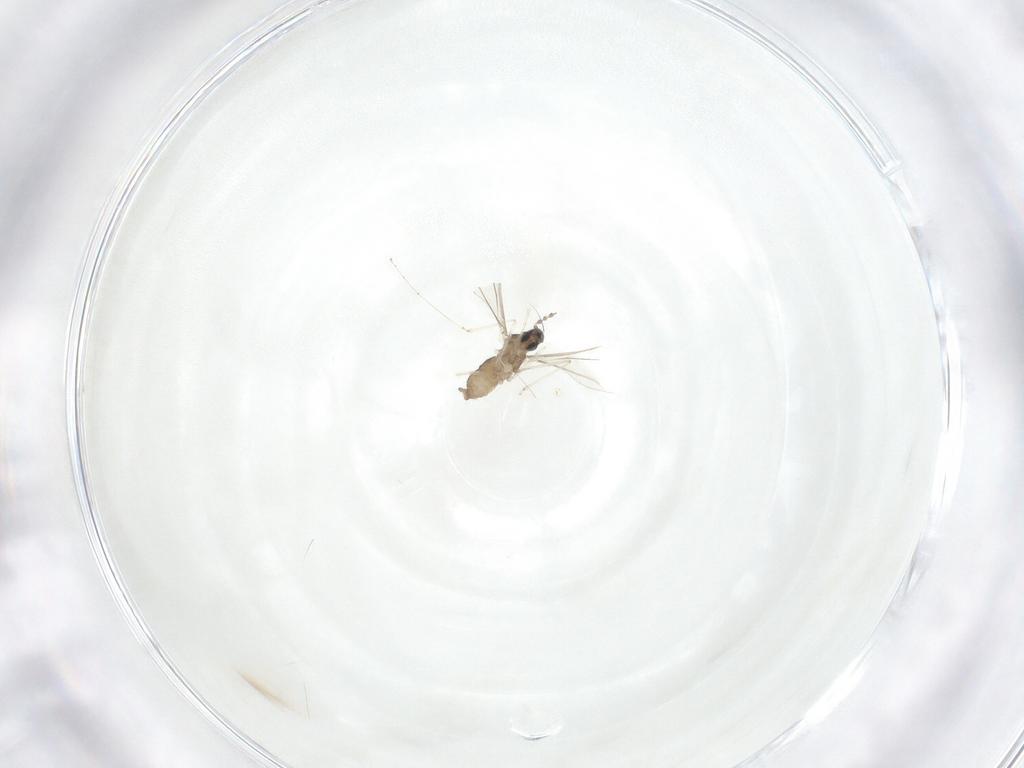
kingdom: Animalia
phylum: Arthropoda
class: Insecta
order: Diptera
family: Cecidomyiidae
